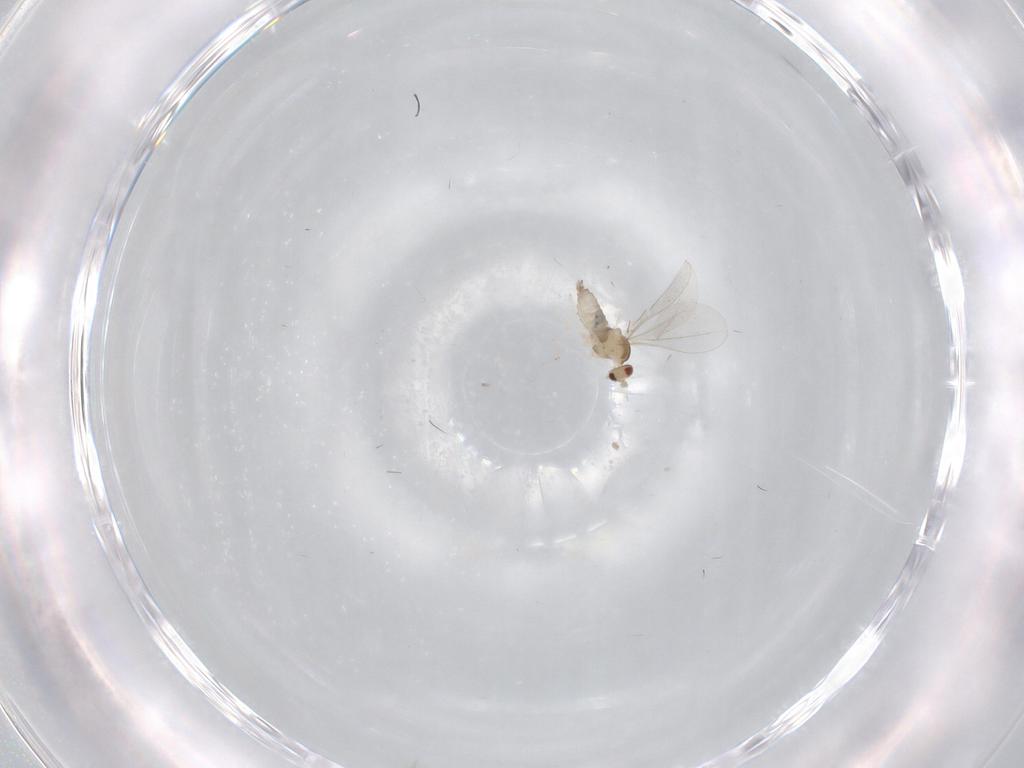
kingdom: Animalia
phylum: Arthropoda
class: Insecta
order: Diptera
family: Cecidomyiidae
